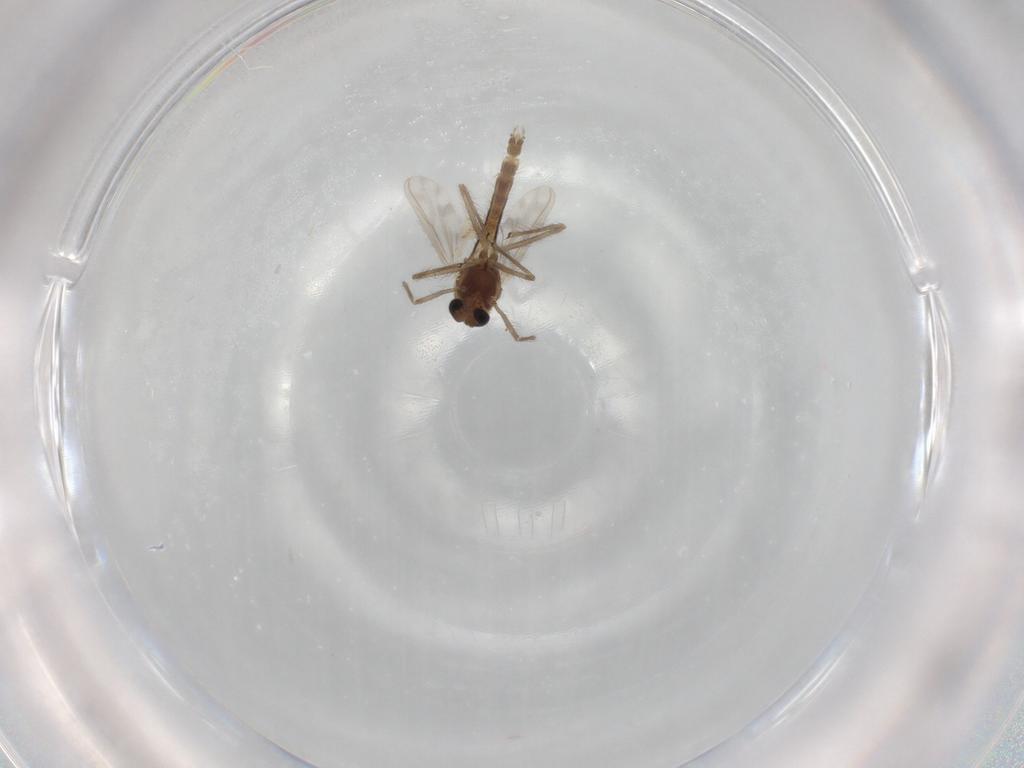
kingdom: Animalia
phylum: Arthropoda
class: Insecta
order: Diptera
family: Chironomidae
